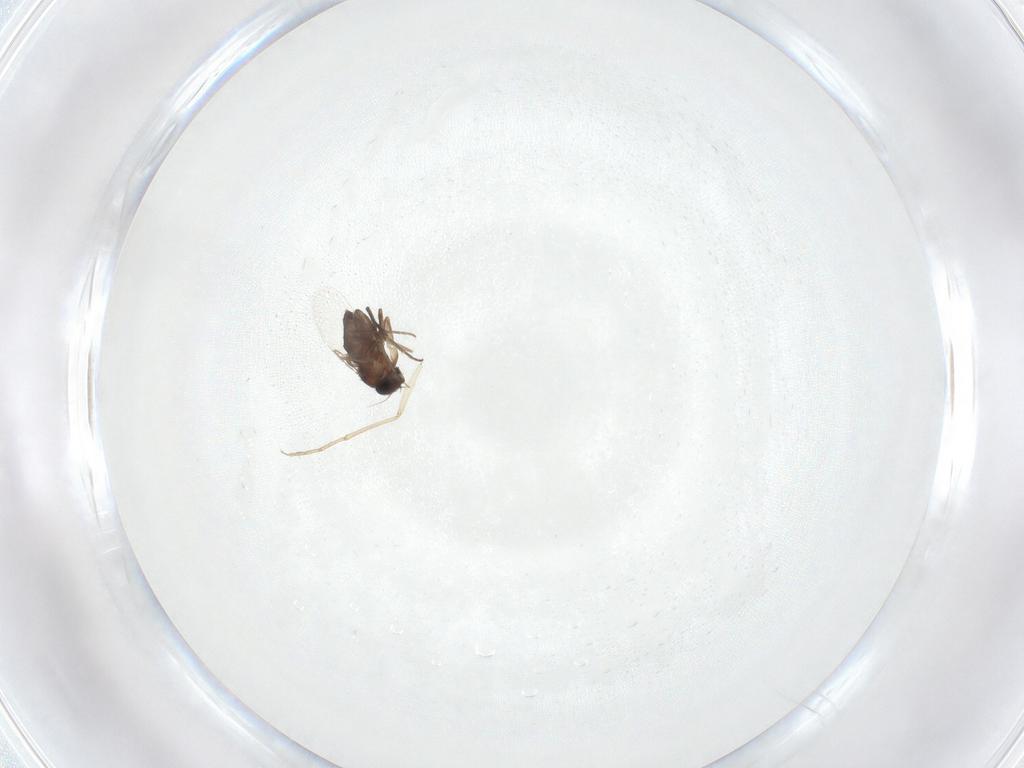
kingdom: Animalia
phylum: Arthropoda
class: Insecta
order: Diptera
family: Phoridae
